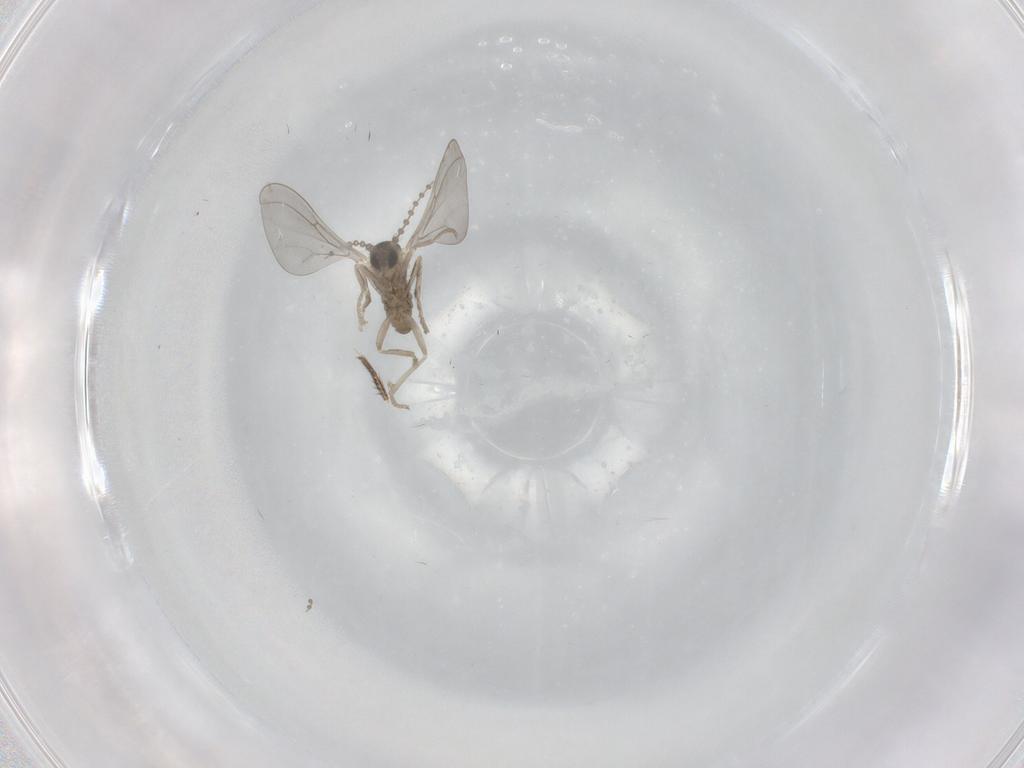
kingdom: Animalia
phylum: Arthropoda
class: Insecta
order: Diptera
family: Cecidomyiidae
